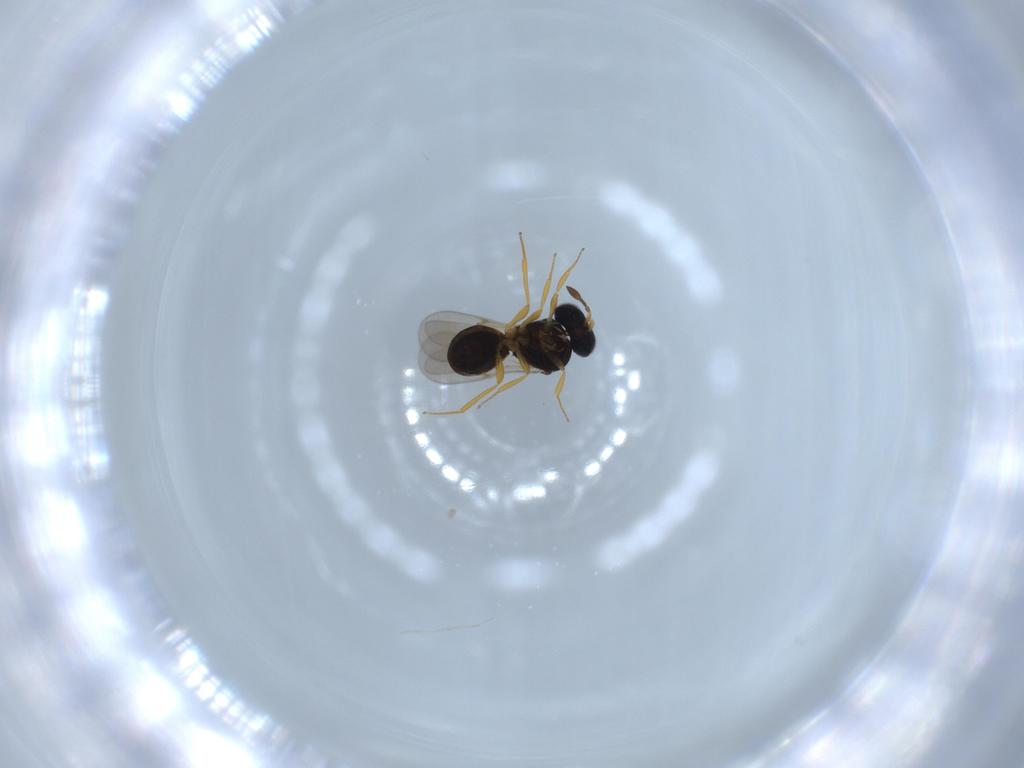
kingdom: Animalia
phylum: Arthropoda
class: Insecta
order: Hymenoptera
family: Scelionidae
